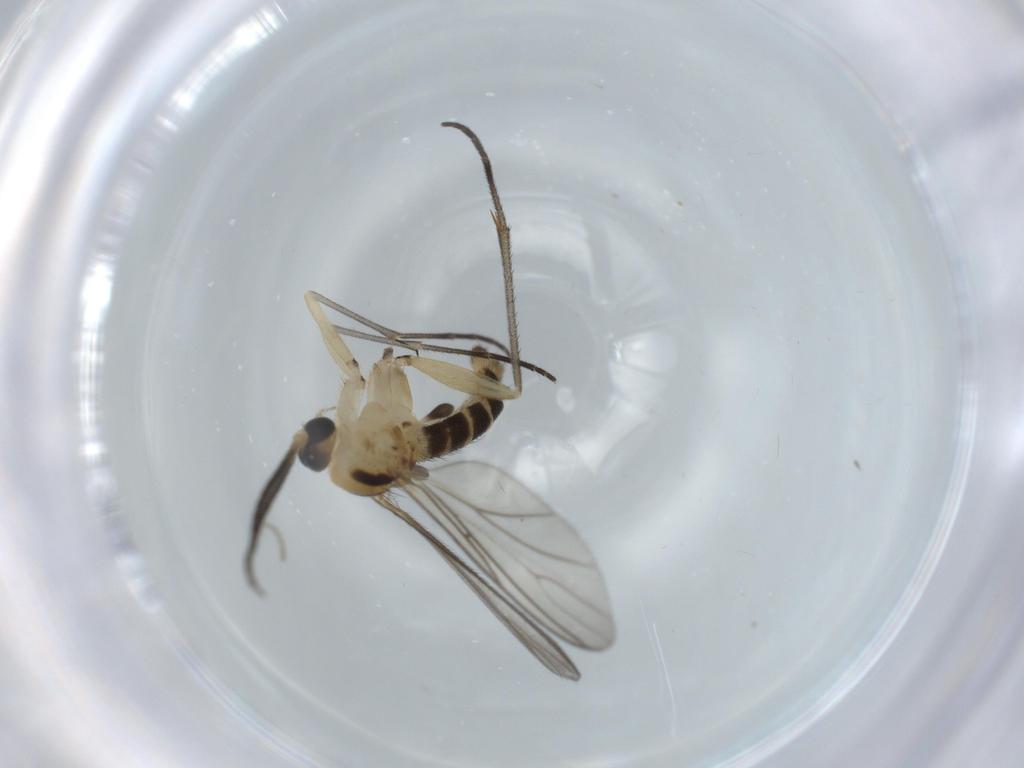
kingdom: Animalia
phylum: Arthropoda
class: Insecta
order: Diptera
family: Sciaridae
